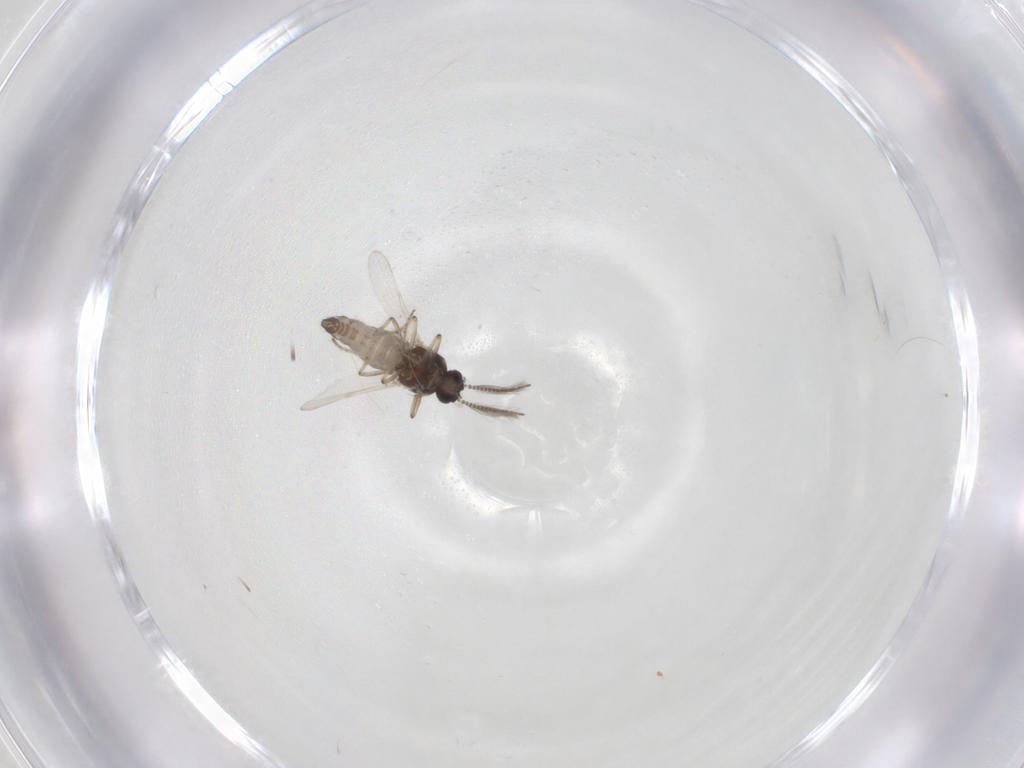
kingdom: Animalia
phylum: Arthropoda
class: Insecta
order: Diptera
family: Ceratopogonidae
